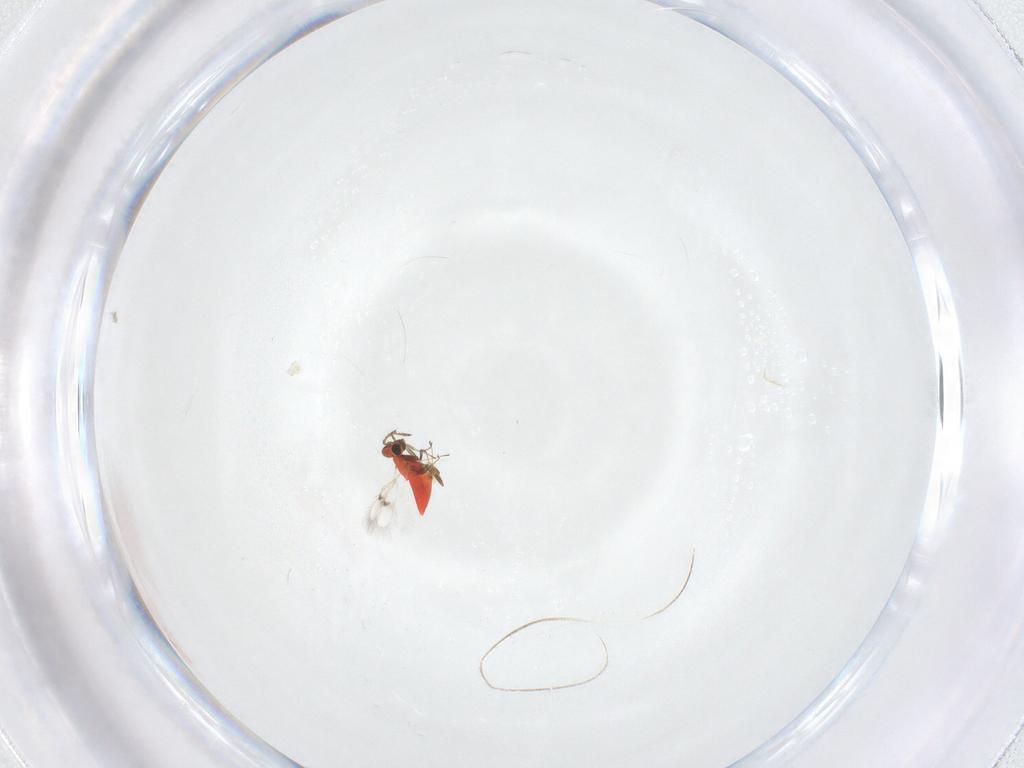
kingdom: Animalia
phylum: Arthropoda
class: Insecta
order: Hymenoptera
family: Trichogrammatidae
